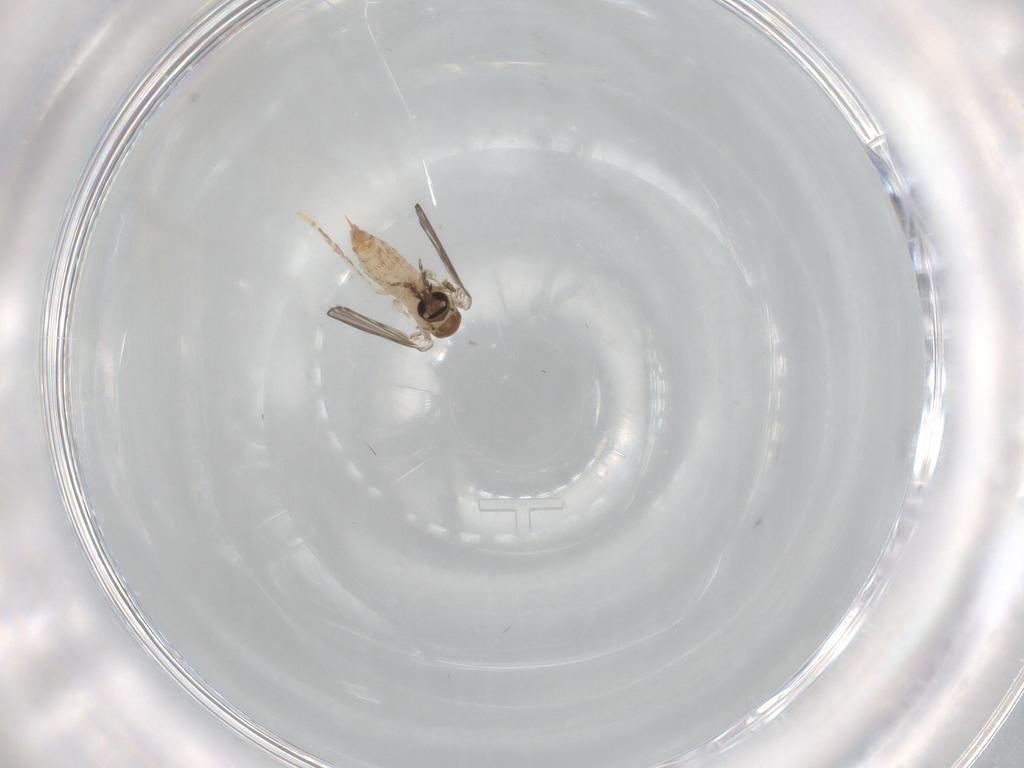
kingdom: Animalia
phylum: Arthropoda
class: Insecta
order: Diptera
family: Psychodidae
